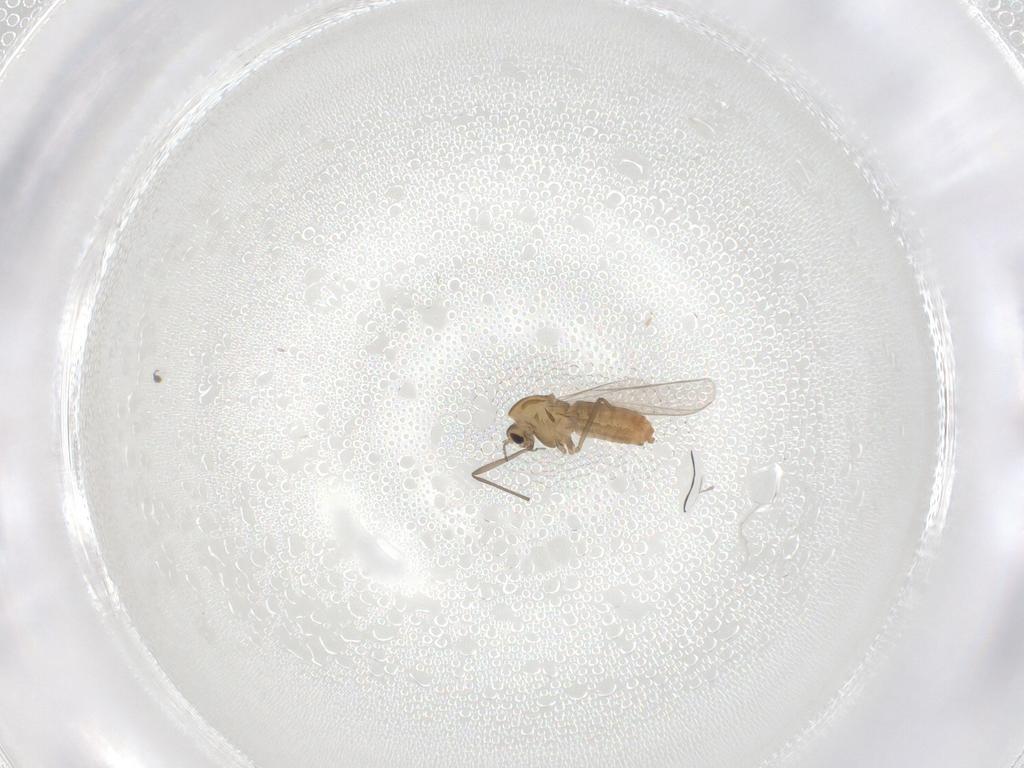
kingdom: Animalia
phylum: Arthropoda
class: Insecta
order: Diptera
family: Chironomidae
